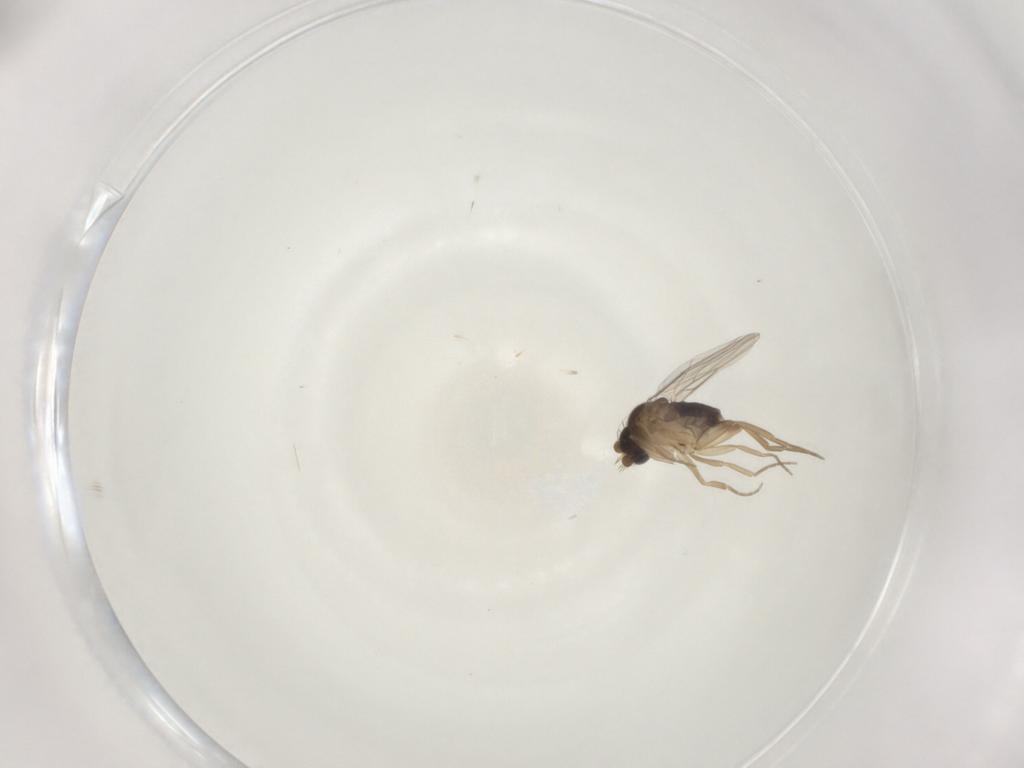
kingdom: Animalia
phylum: Arthropoda
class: Insecta
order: Diptera
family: Phoridae
